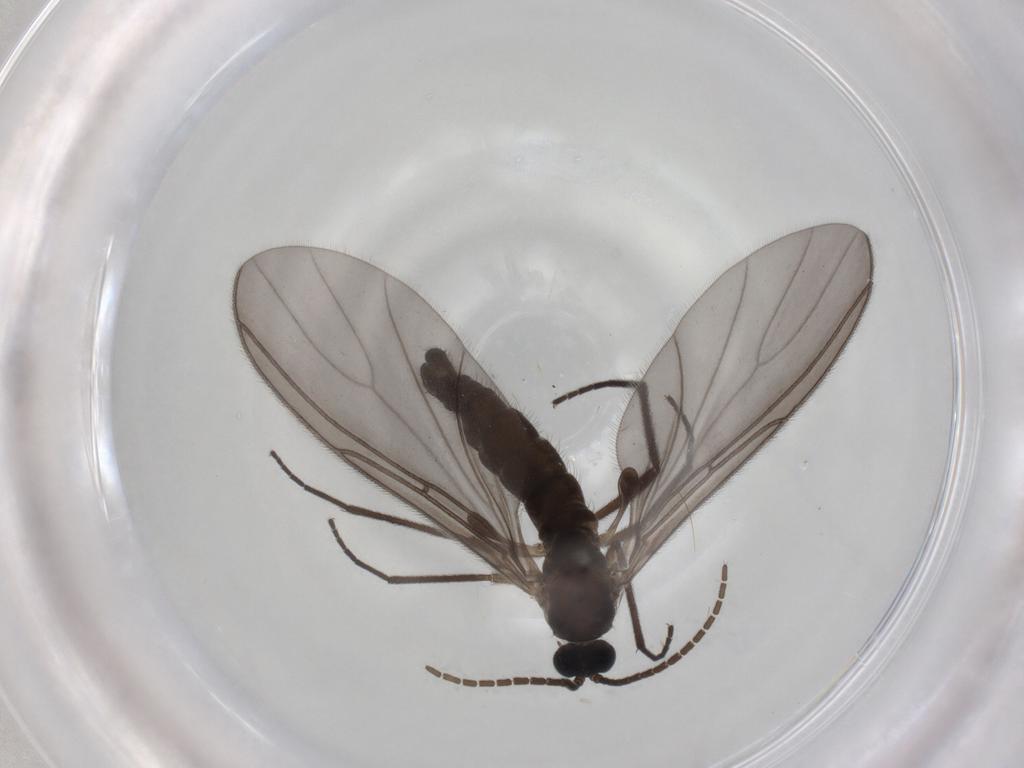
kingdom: Animalia
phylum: Arthropoda
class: Insecta
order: Diptera
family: Sciaridae
